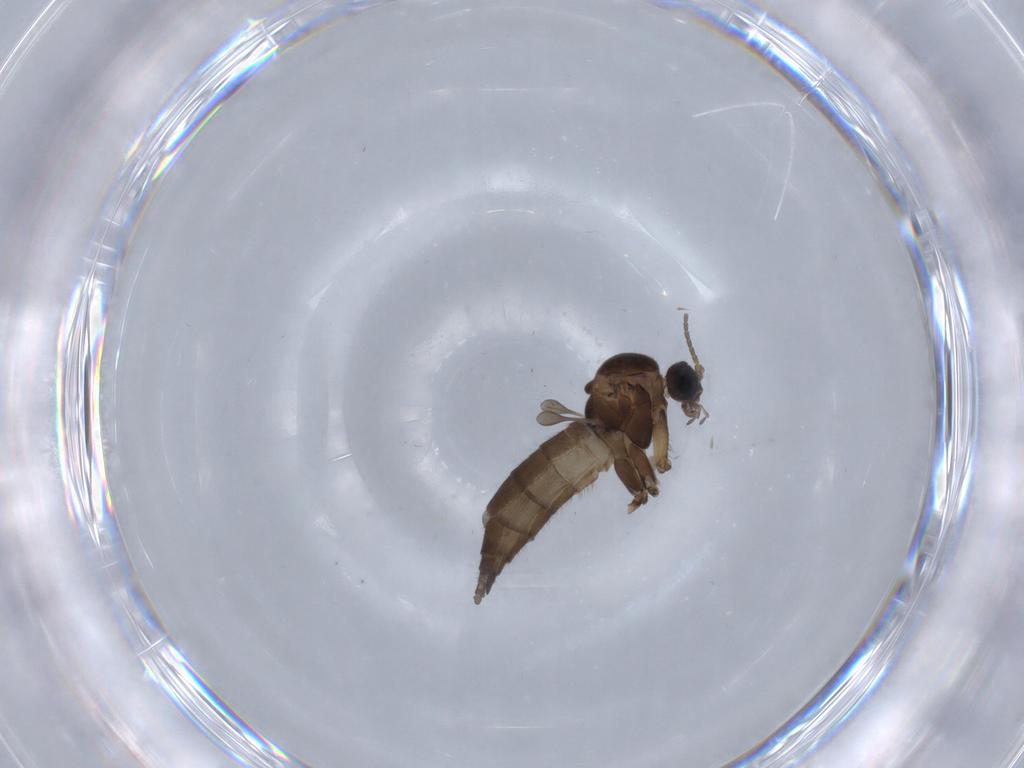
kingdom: Animalia
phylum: Arthropoda
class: Insecta
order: Diptera
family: Sciaridae
